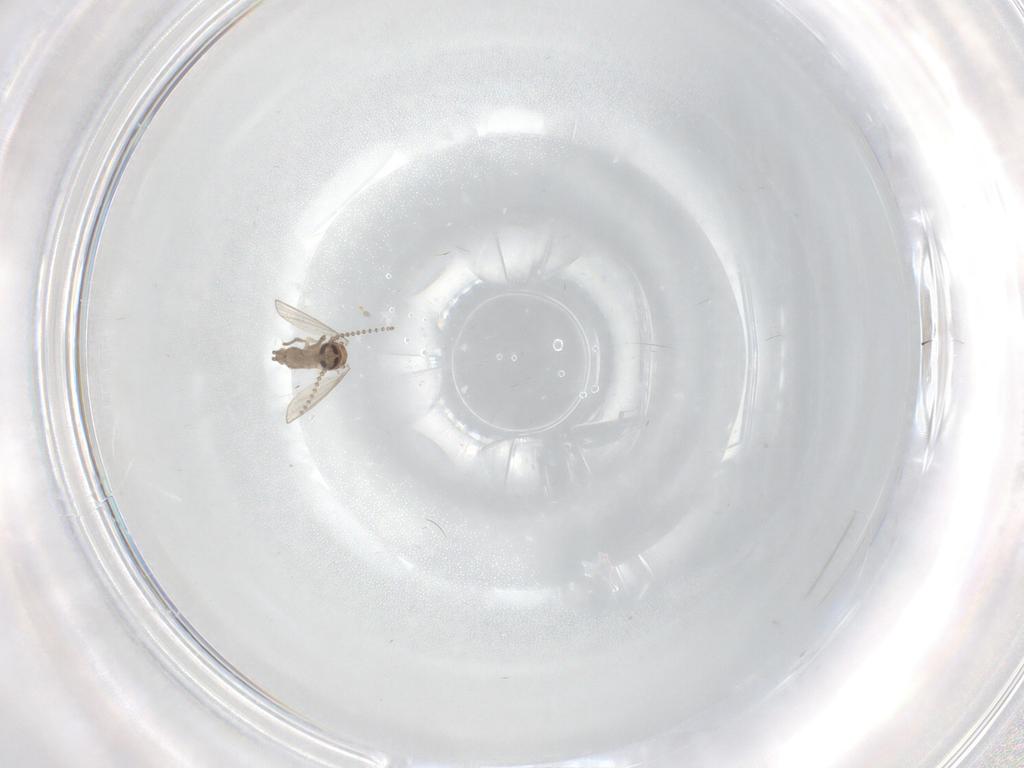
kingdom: Animalia
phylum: Arthropoda
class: Insecta
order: Diptera
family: Psychodidae
